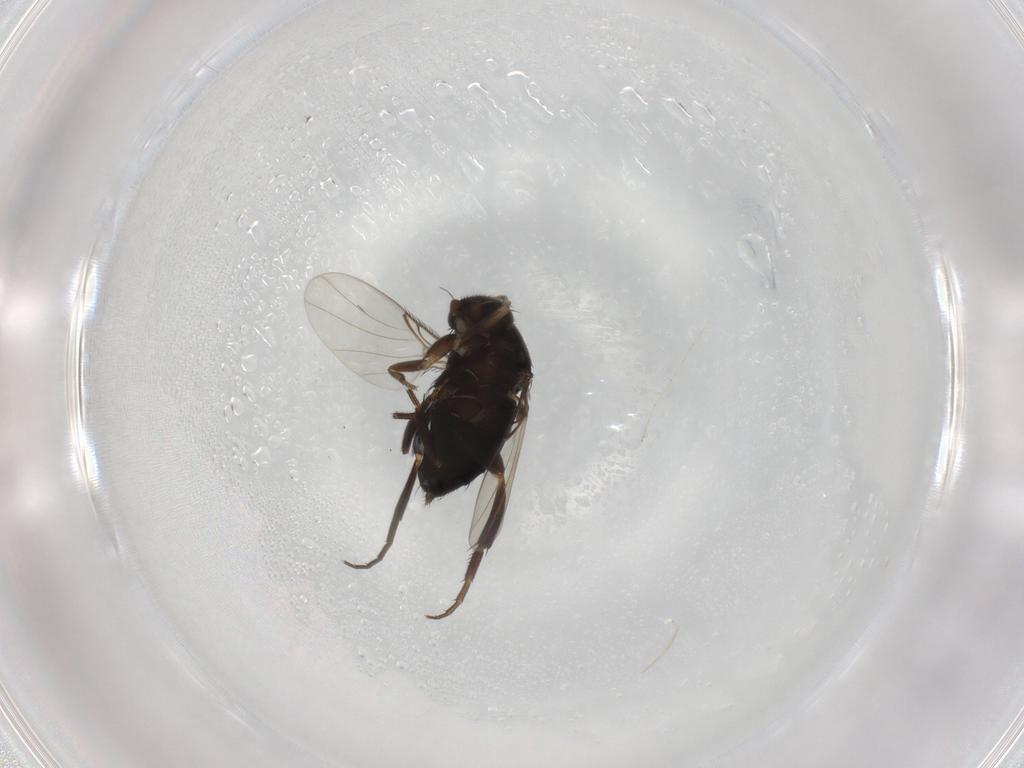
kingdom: Animalia
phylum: Arthropoda
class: Insecta
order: Diptera
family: Phoridae
